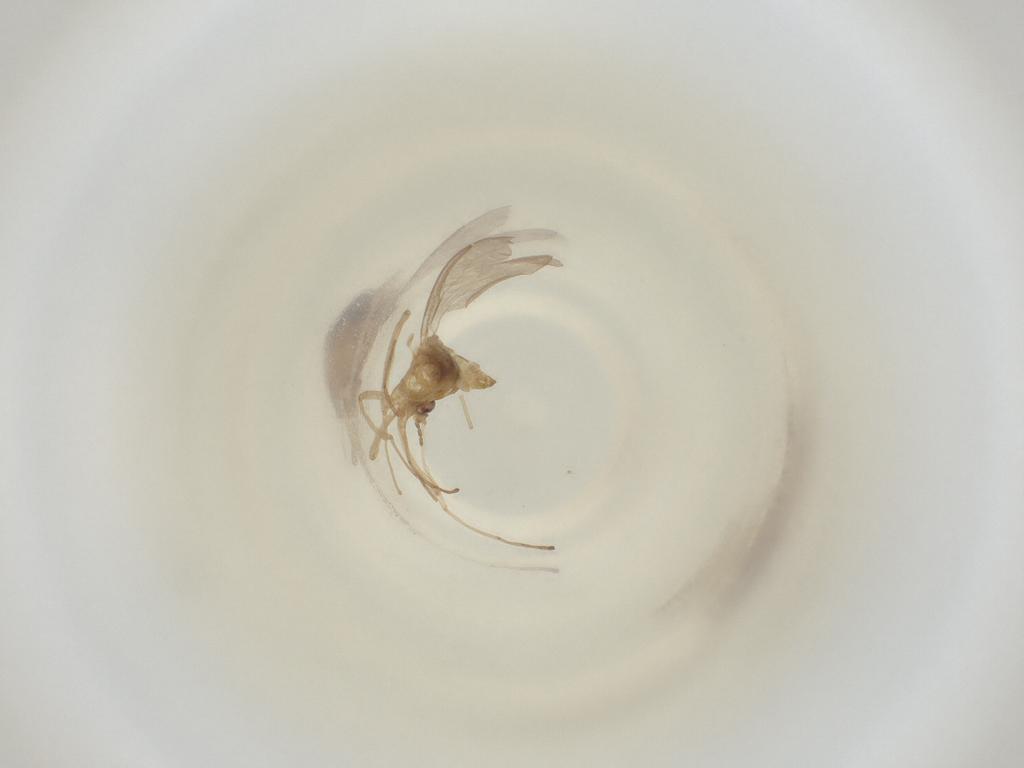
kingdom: Animalia
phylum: Arthropoda
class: Insecta
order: Diptera
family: Cecidomyiidae
